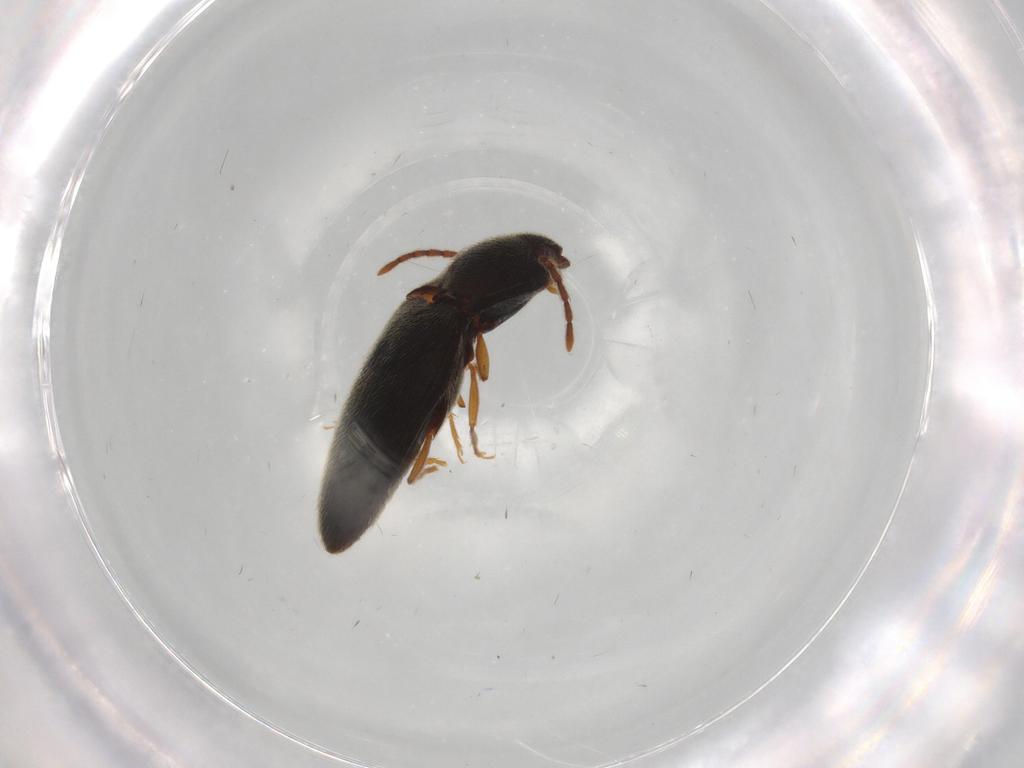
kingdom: Animalia
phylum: Arthropoda
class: Insecta
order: Coleoptera
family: Elateridae
